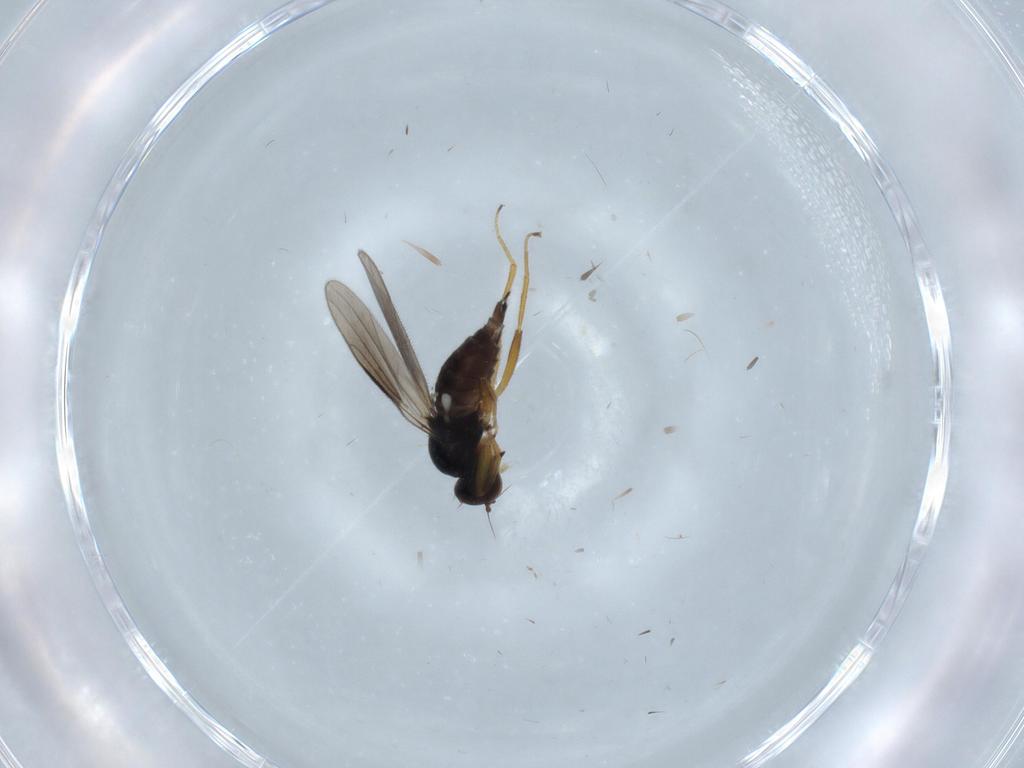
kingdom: Animalia
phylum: Arthropoda
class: Insecta
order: Diptera
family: Hybotidae
